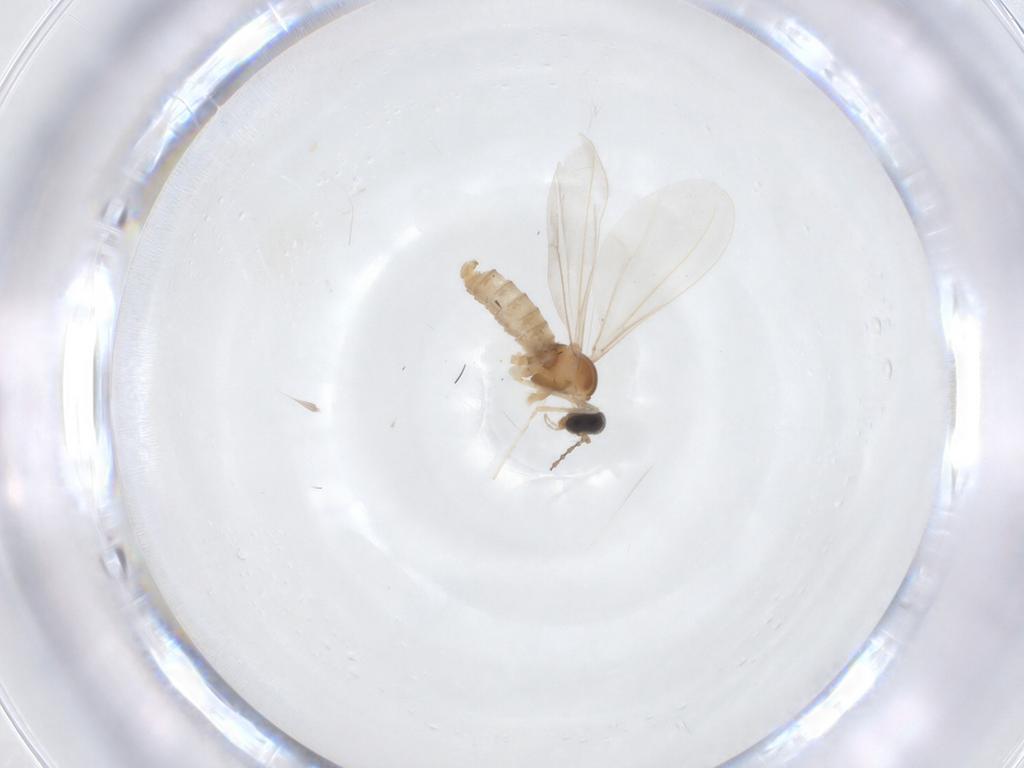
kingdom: Animalia
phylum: Arthropoda
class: Insecta
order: Diptera
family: Cecidomyiidae
